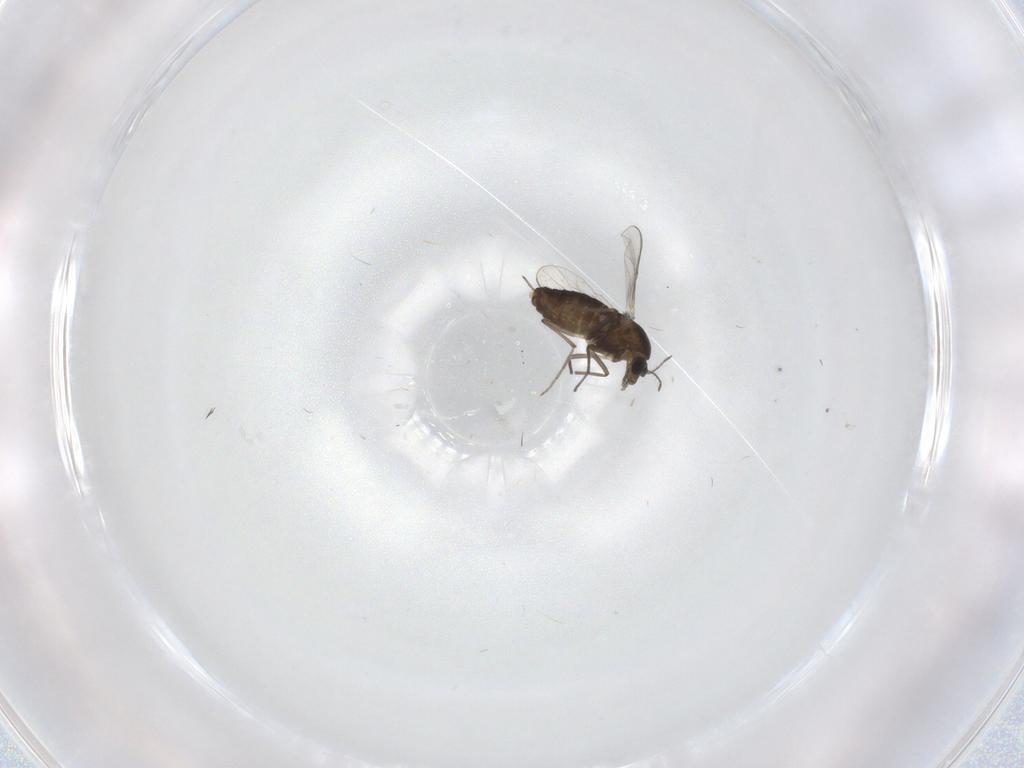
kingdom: Animalia
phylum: Arthropoda
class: Insecta
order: Diptera
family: Chironomidae
